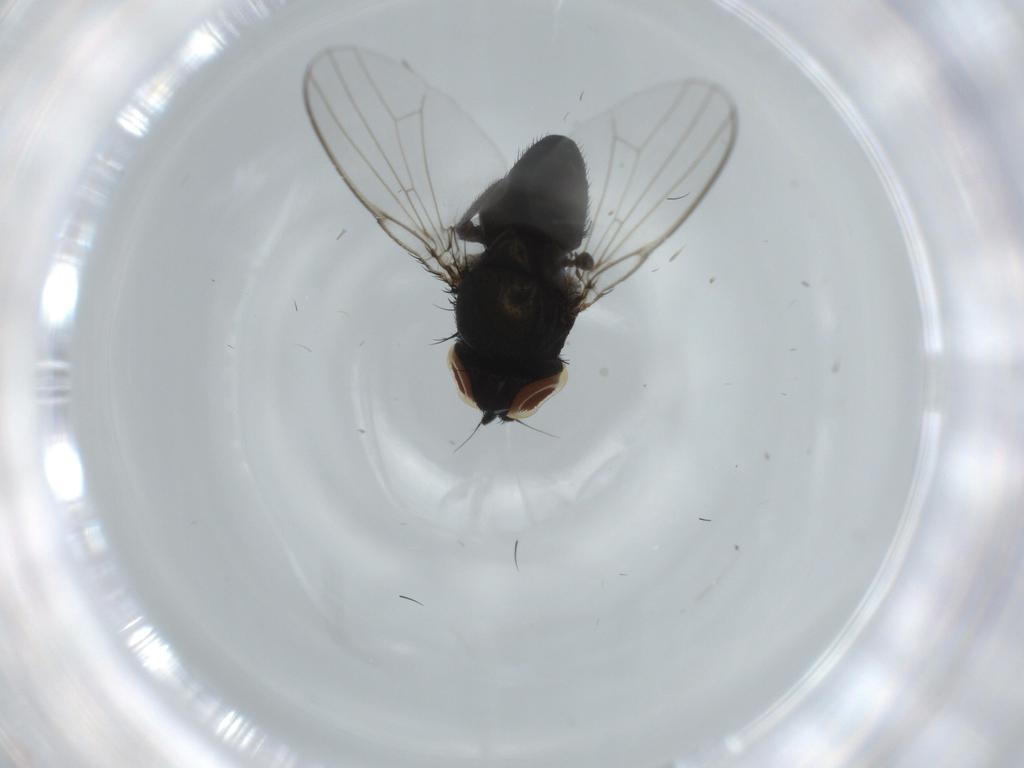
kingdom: Animalia
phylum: Arthropoda
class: Insecta
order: Diptera
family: Milichiidae
